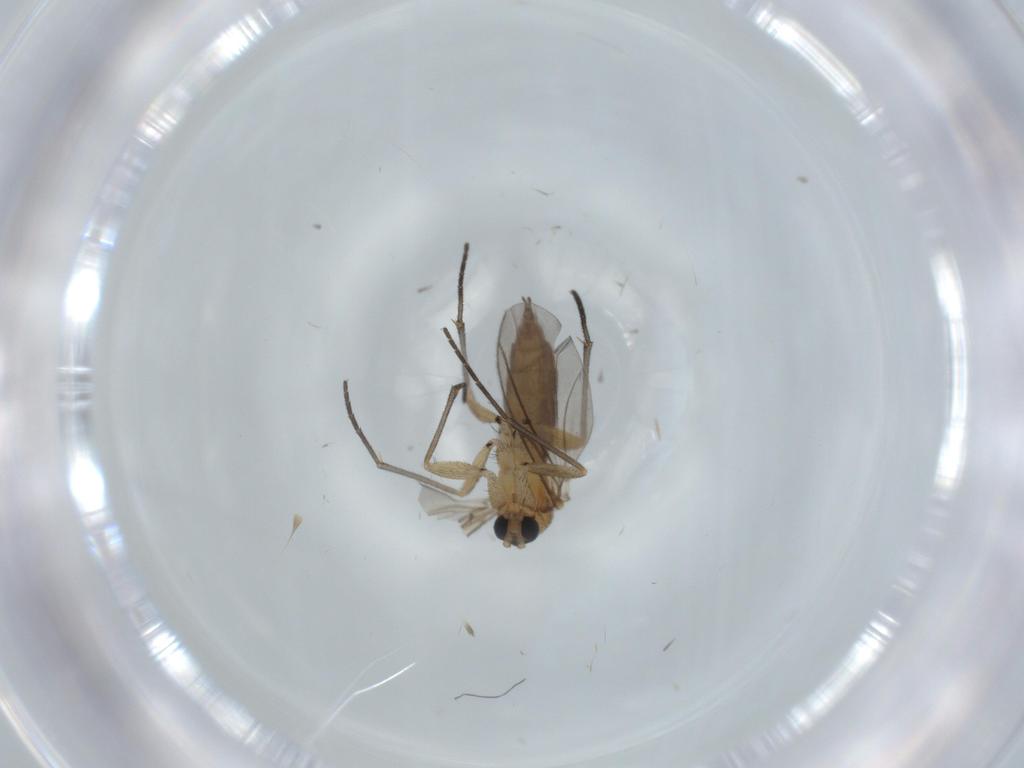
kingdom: Animalia
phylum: Arthropoda
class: Insecta
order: Diptera
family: Sciaridae
